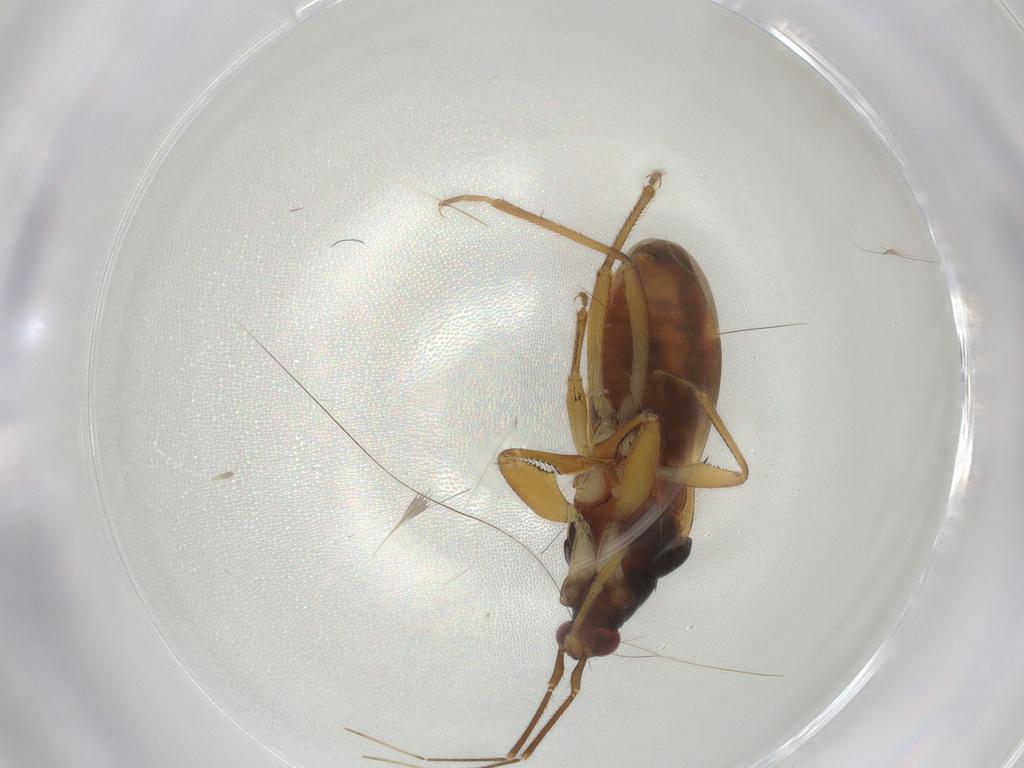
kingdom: Animalia
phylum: Arthropoda
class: Insecta
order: Hemiptera
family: Nabidae
